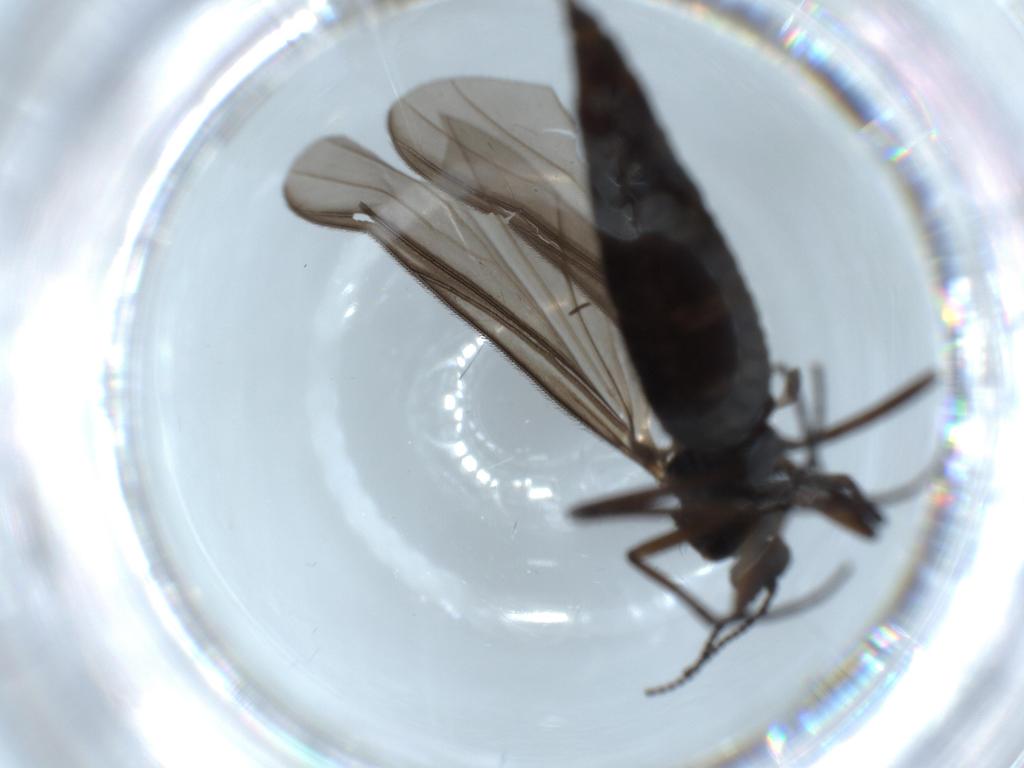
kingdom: Animalia
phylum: Arthropoda
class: Insecta
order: Diptera
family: Phoridae
